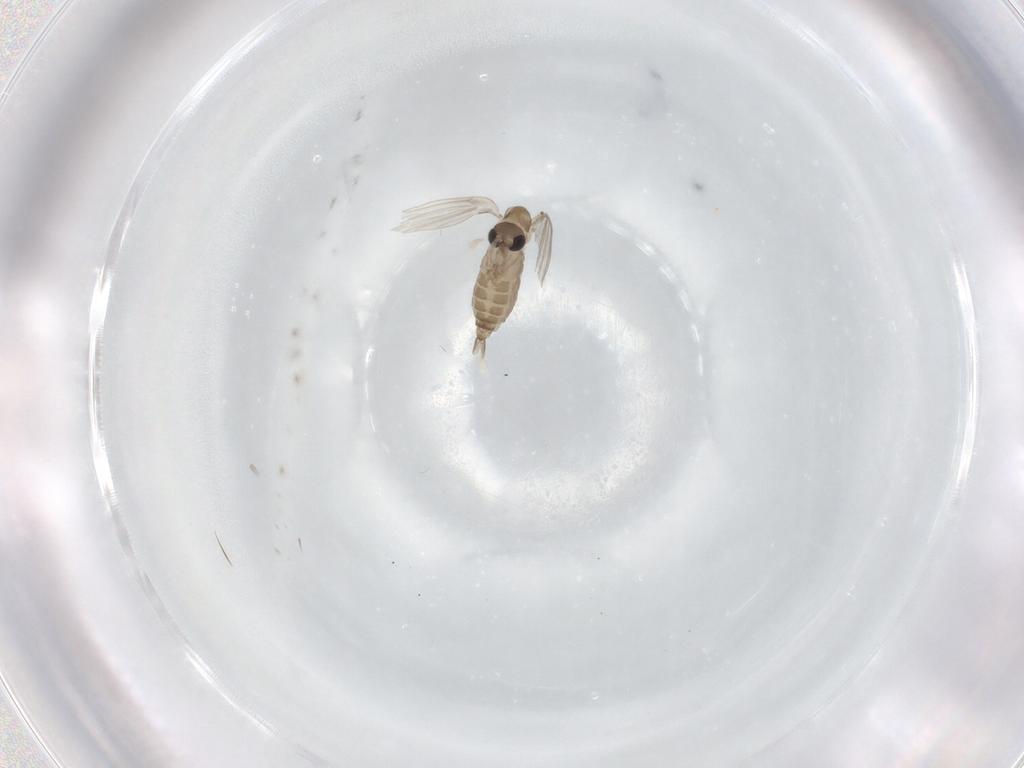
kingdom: Animalia
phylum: Arthropoda
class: Insecta
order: Diptera
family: Psychodidae
